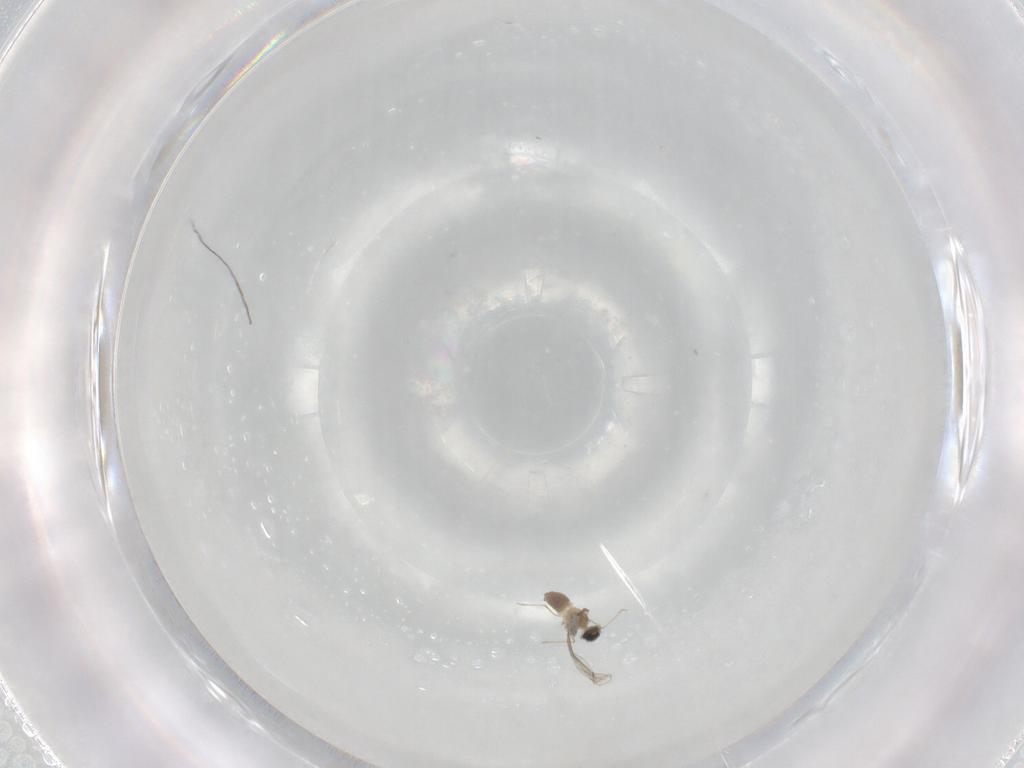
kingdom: Animalia
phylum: Arthropoda
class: Insecta
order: Diptera
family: Cecidomyiidae
